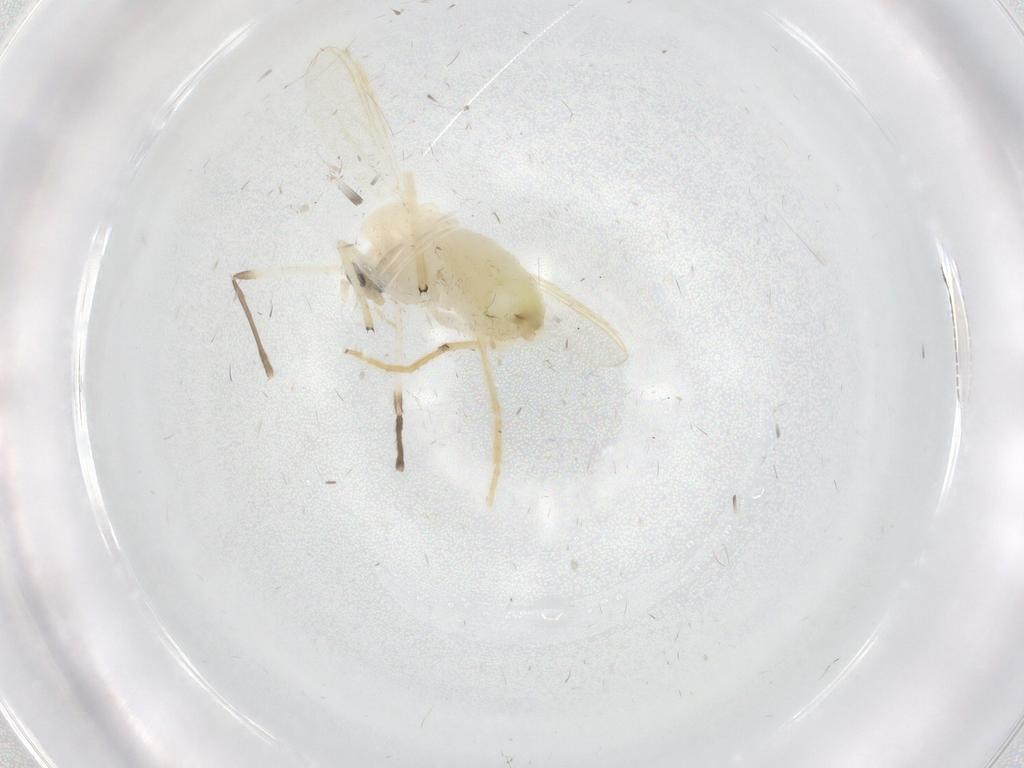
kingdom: Animalia
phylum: Arthropoda
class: Insecta
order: Diptera
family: Chironomidae
